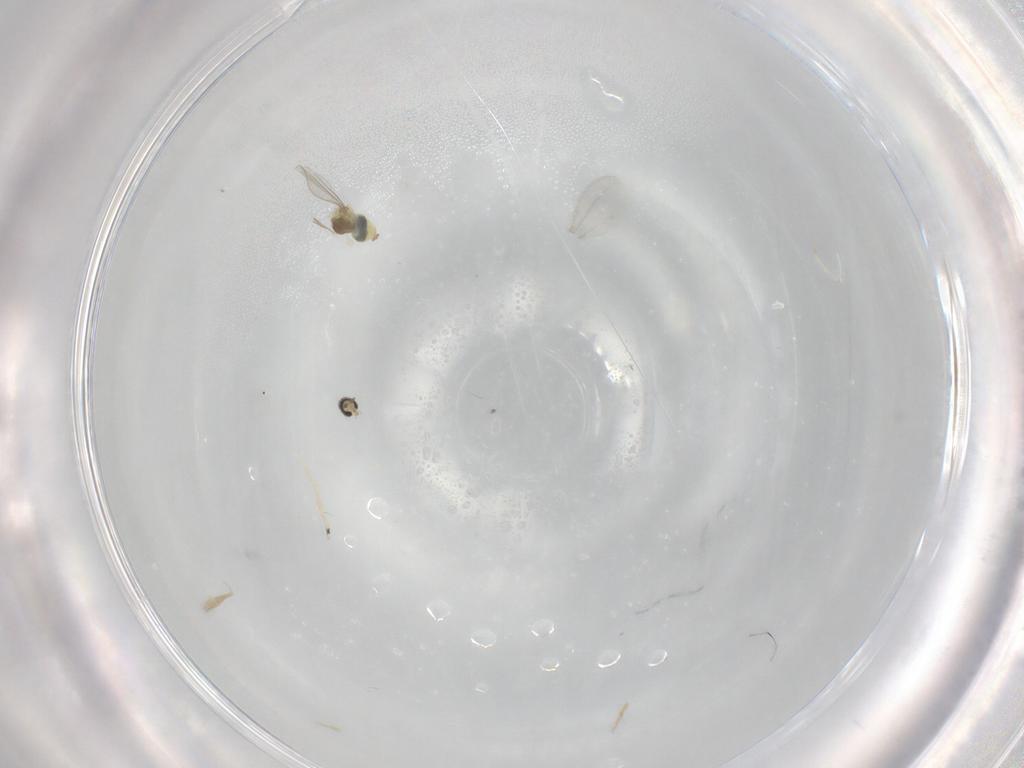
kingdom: Animalia
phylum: Arthropoda
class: Insecta
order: Diptera
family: Cecidomyiidae
